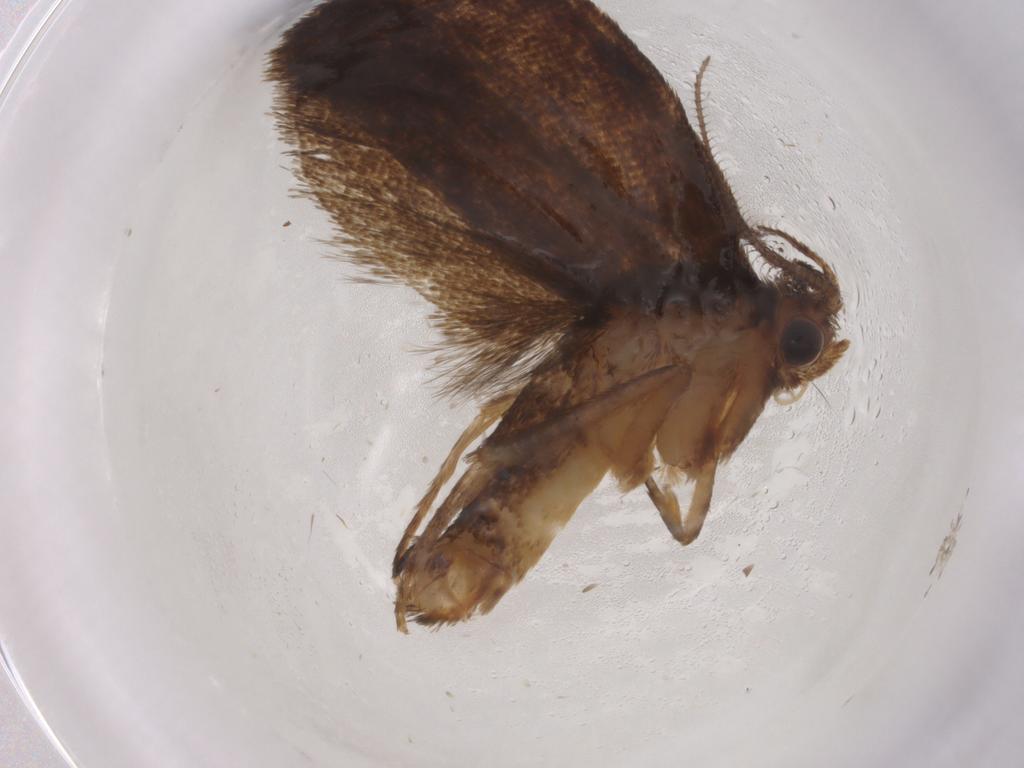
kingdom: Animalia
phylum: Arthropoda
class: Insecta
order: Lepidoptera
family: Tortricidae
